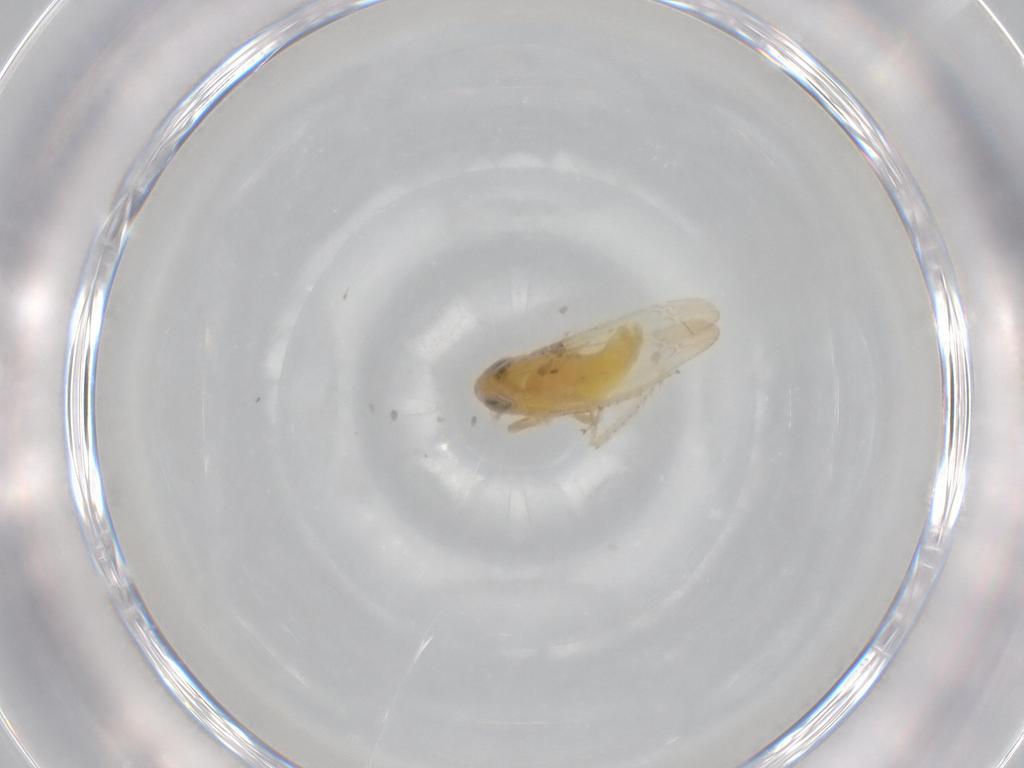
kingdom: Animalia
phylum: Arthropoda
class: Insecta
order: Hemiptera
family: Cicadellidae
